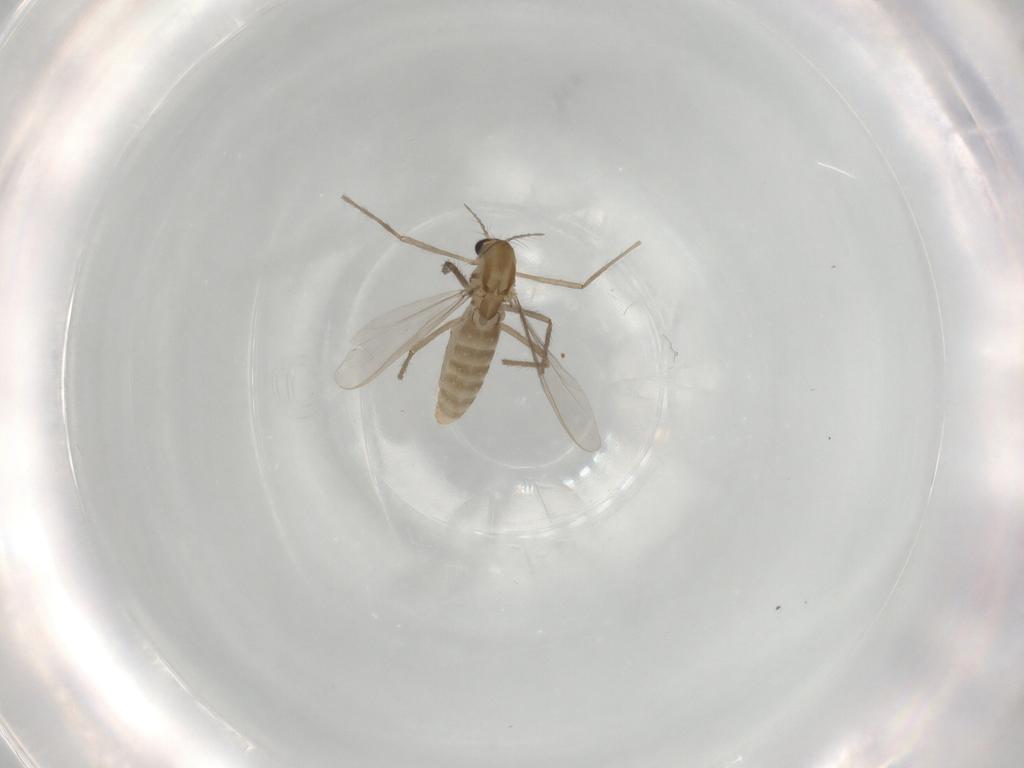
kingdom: Animalia
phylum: Arthropoda
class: Insecta
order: Diptera
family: Chironomidae
